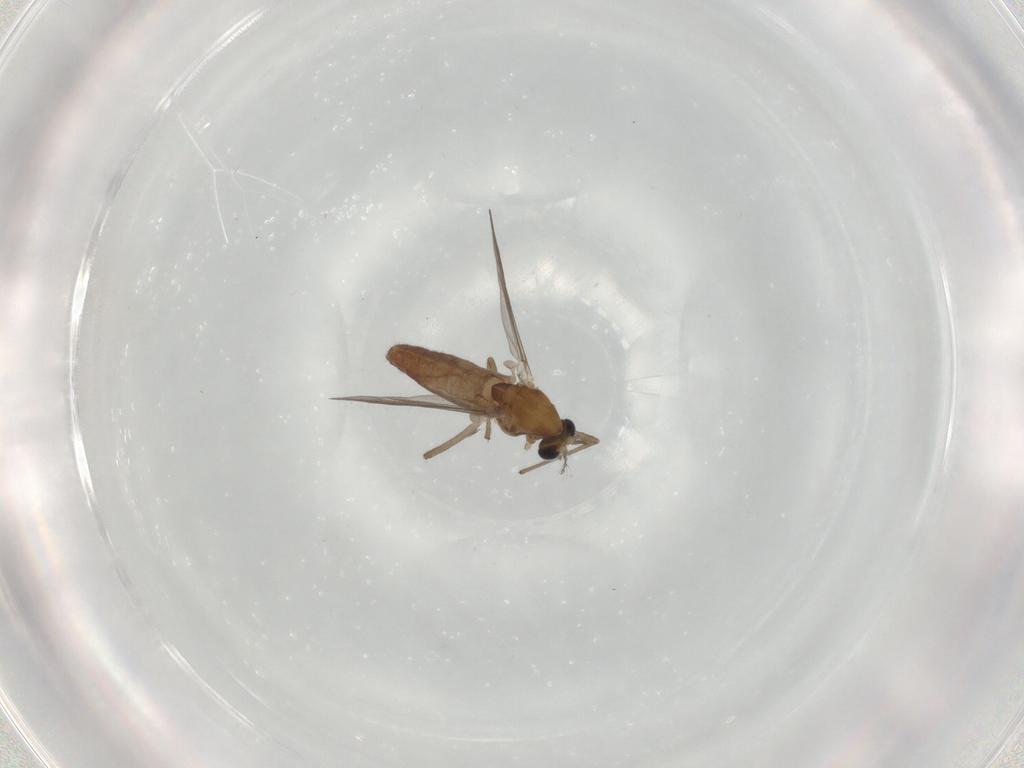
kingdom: Animalia
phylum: Arthropoda
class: Insecta
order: Diptera
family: Chironomidae
